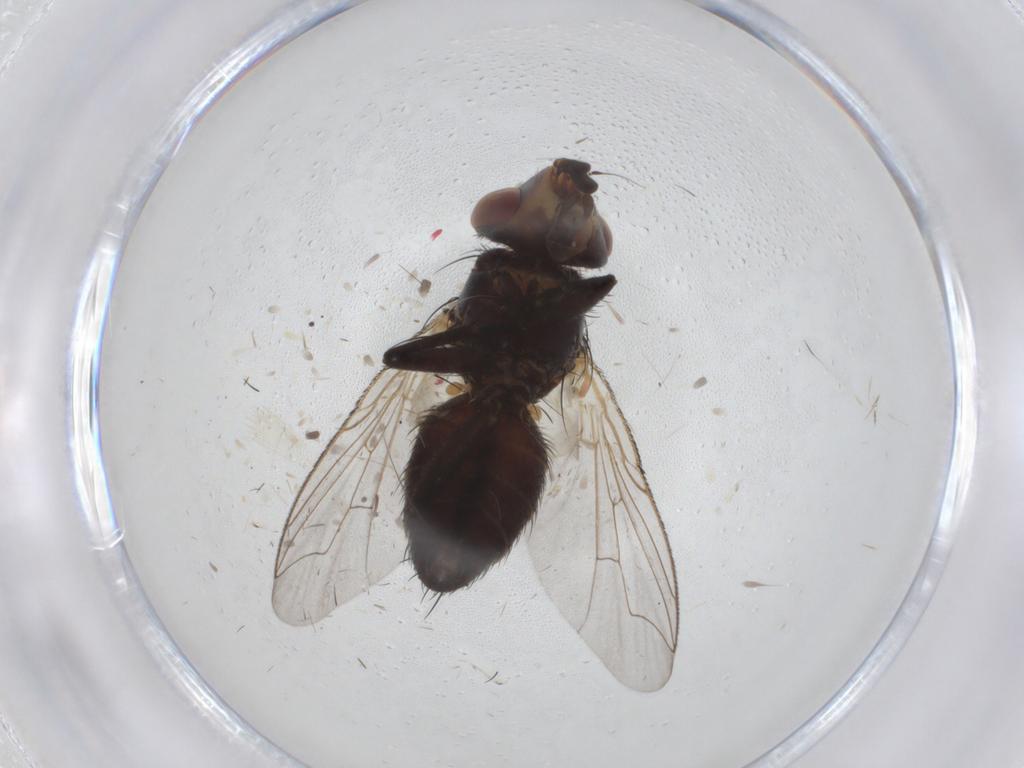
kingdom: Animalia
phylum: Arthropoda
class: Insecta
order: Diptera
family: Sarcophagidae
